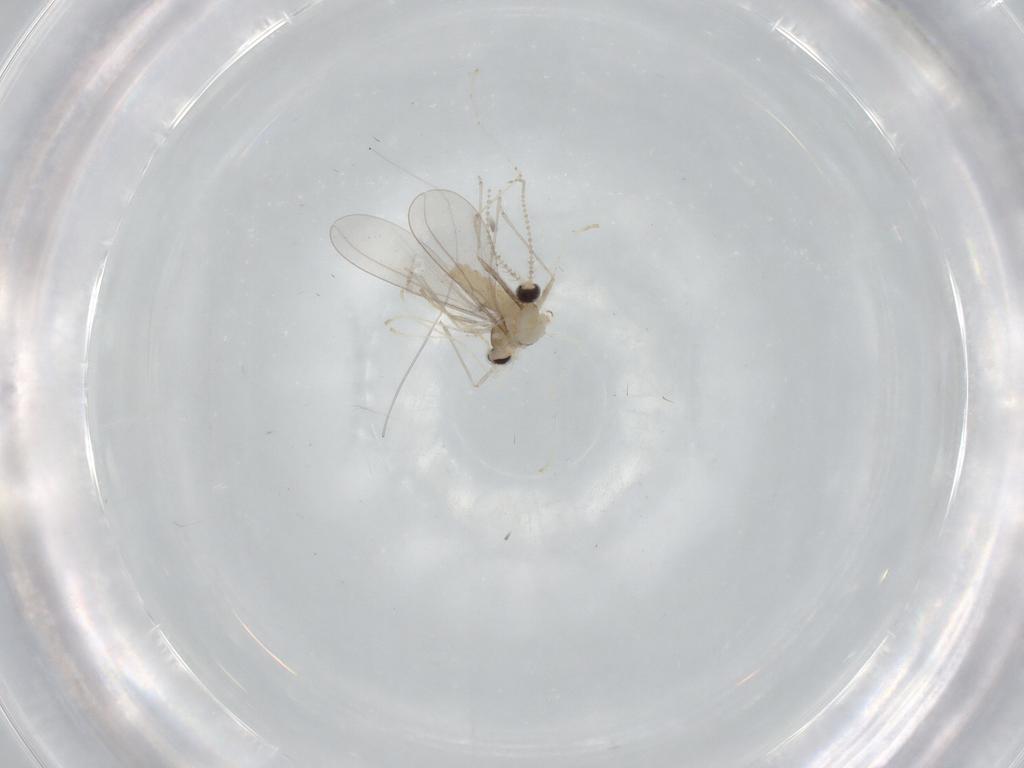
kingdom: Animalia
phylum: Arthropoda
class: Insecta
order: Diptera
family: Cecidomyiidae
